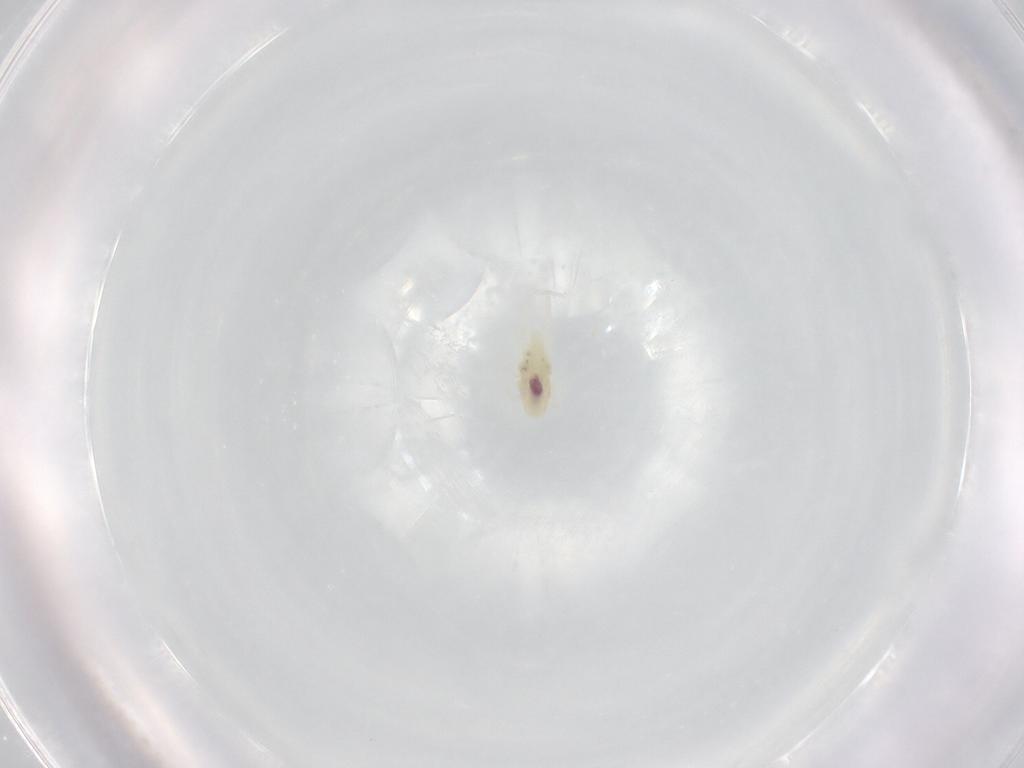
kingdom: Animalia
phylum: Arthropoda
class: Arachnida
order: Trombidiformes
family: Rhagidiidae
